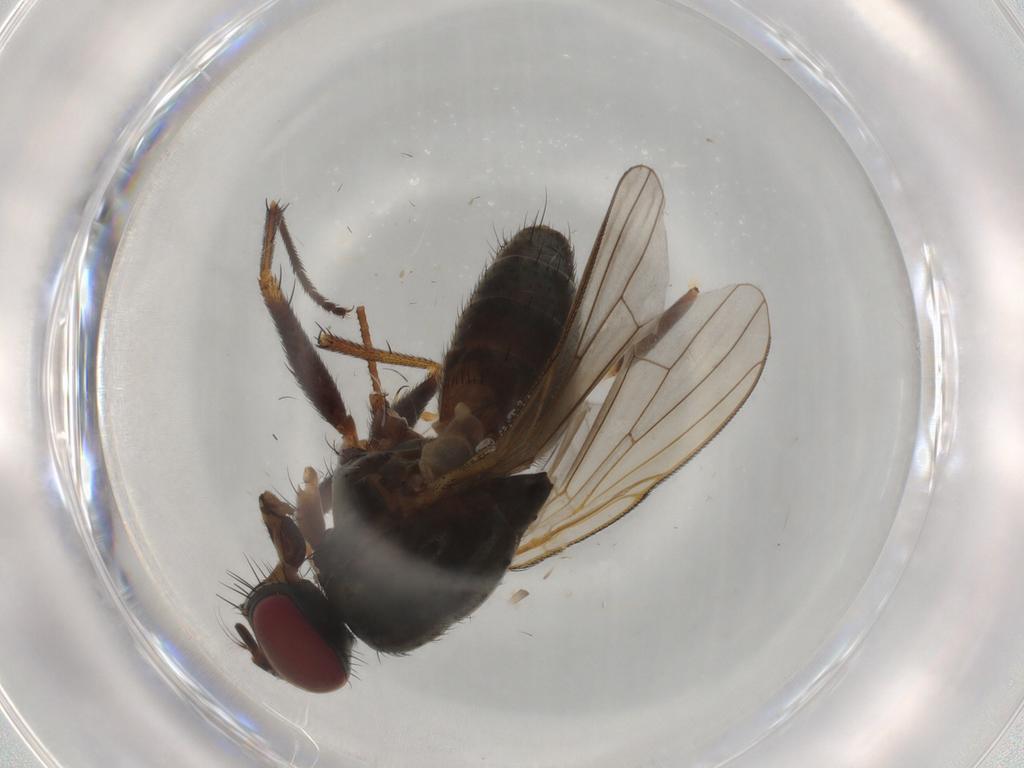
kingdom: Animalia
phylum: Arthropoda
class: Insecta
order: Diptera
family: Muscidae
